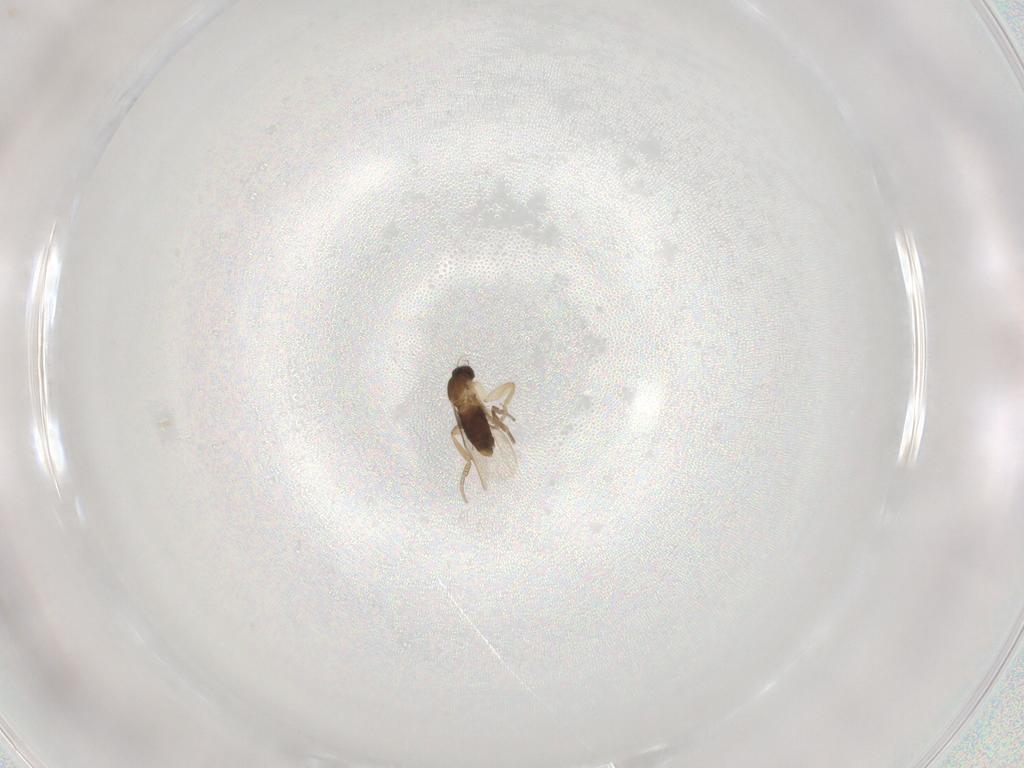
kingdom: Animalia
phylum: Arthropoda
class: Insecta
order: Diptera
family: Phoridae
